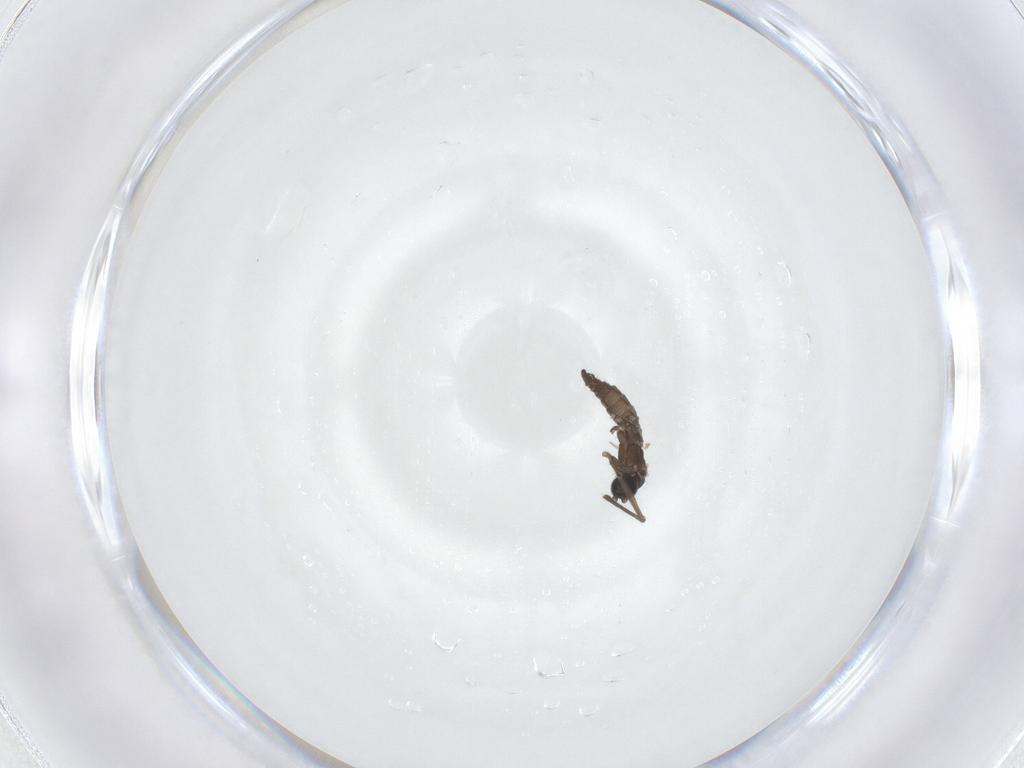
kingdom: Animalia
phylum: Arthropoda
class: Insecta
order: Diptera
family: Sciaridae
